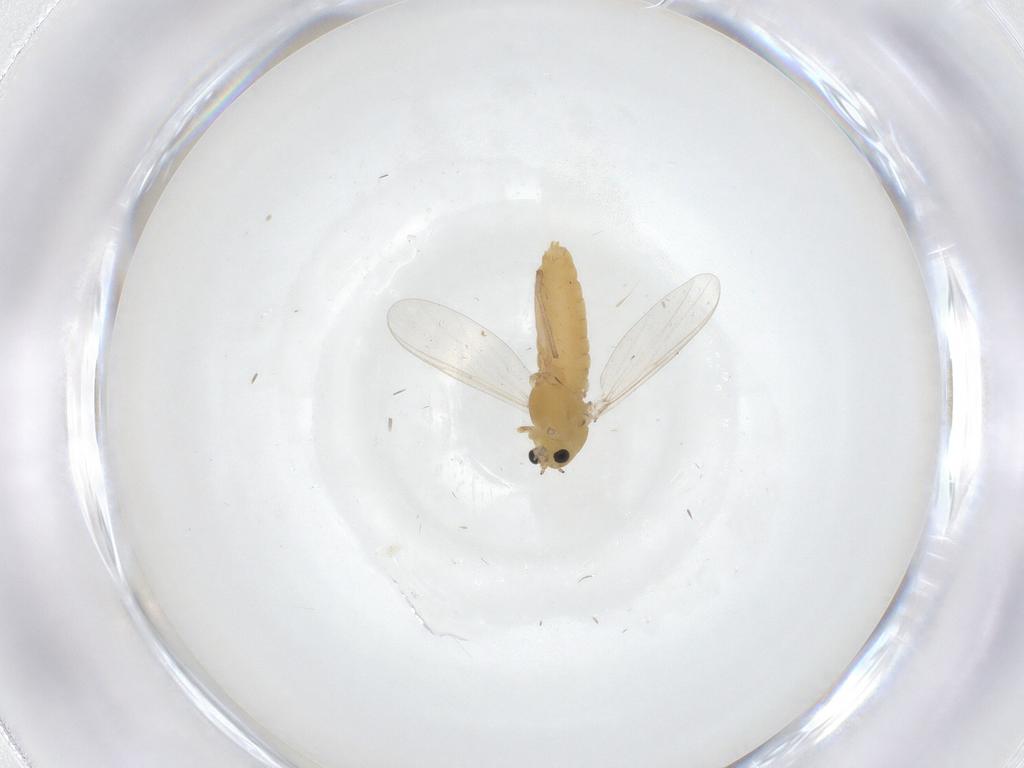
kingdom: Animalia
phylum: Arthropoda
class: Insecta
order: Diptera
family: Chironomidae
